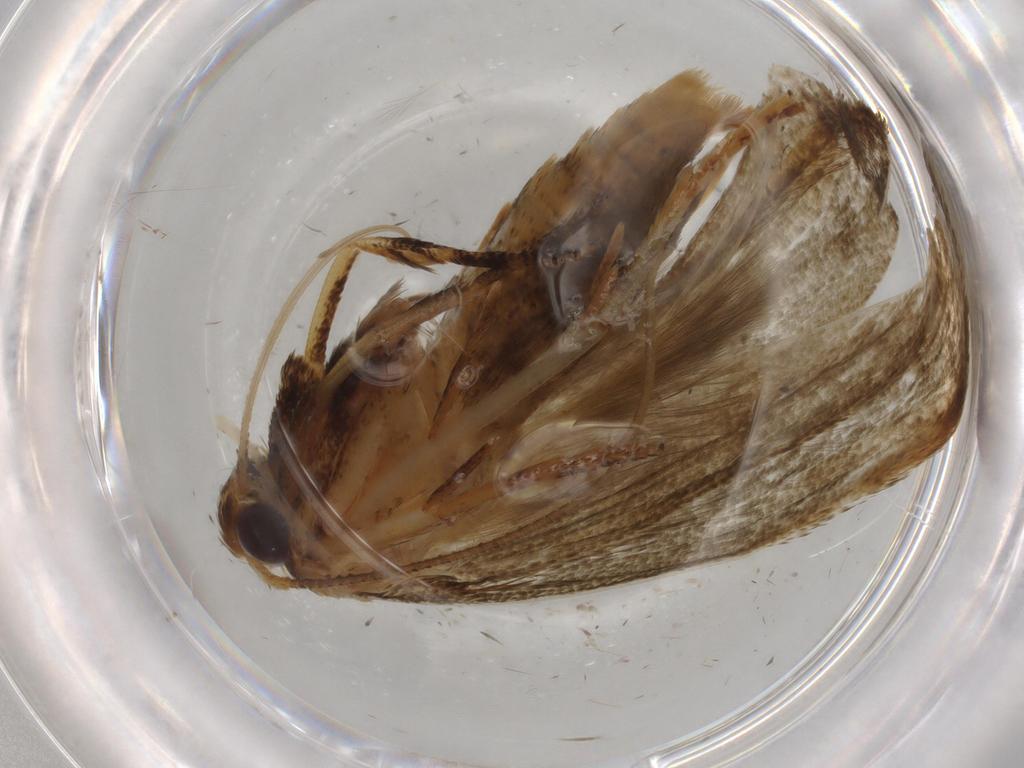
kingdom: Animalia
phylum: Arthropoda
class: Insecta
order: Lepidoptera
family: Blastobasidae
